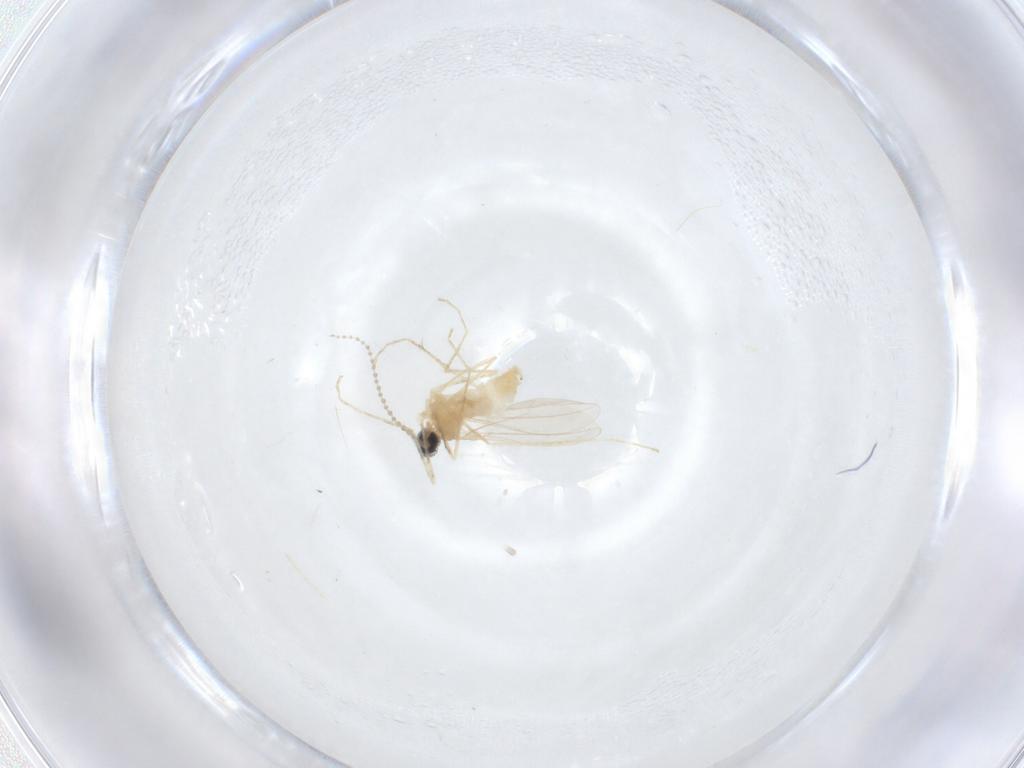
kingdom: Animalia
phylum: Arthropoda
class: Insecta
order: Diptera
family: Cecidomyiidae
